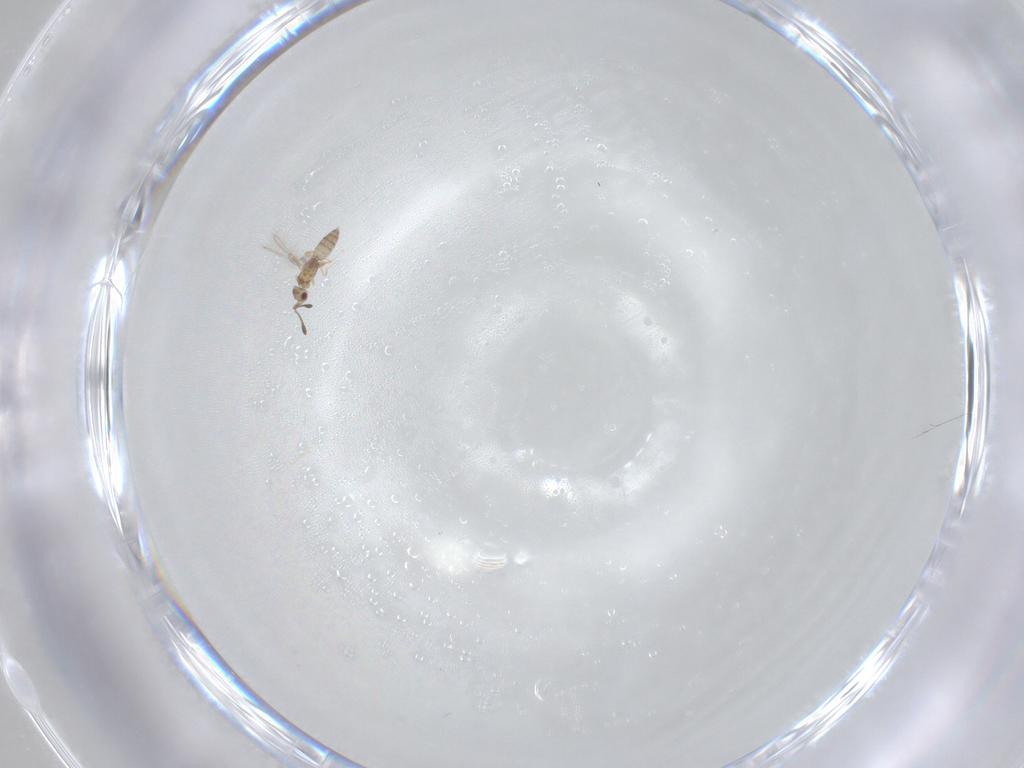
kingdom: Animalia
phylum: Arthropoda
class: Insecta
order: Hymenoptera
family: Mymaridae
